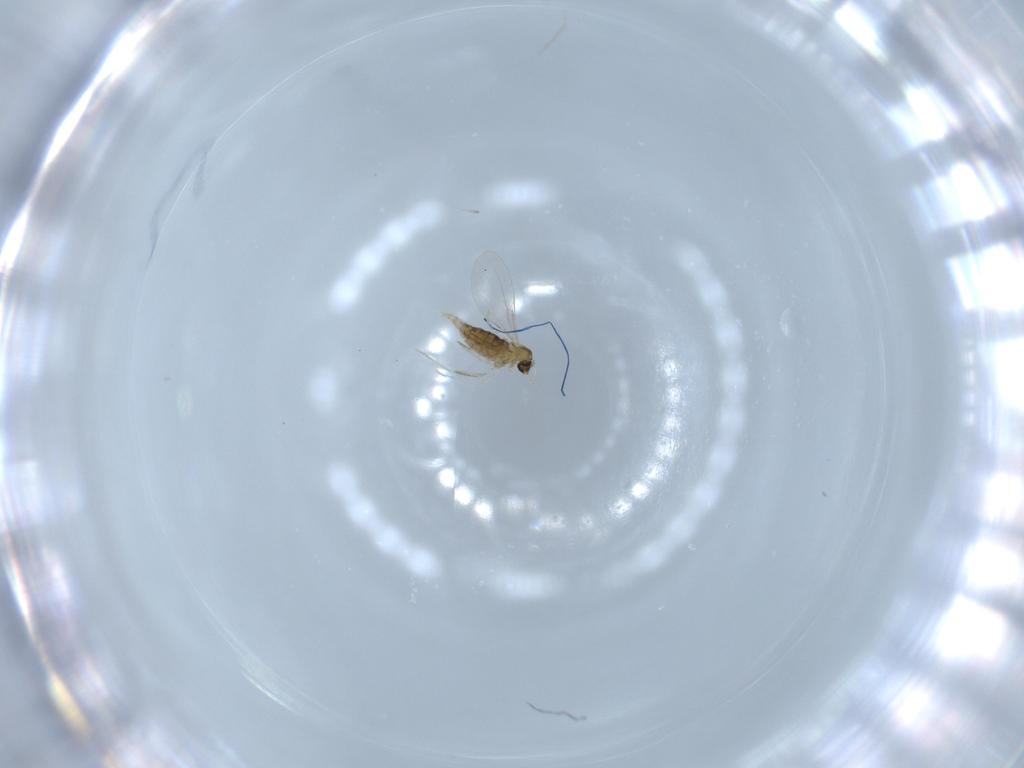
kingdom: Animalia
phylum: Arthropoda
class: Insecta
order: Diptera
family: Cecidomyiidae
